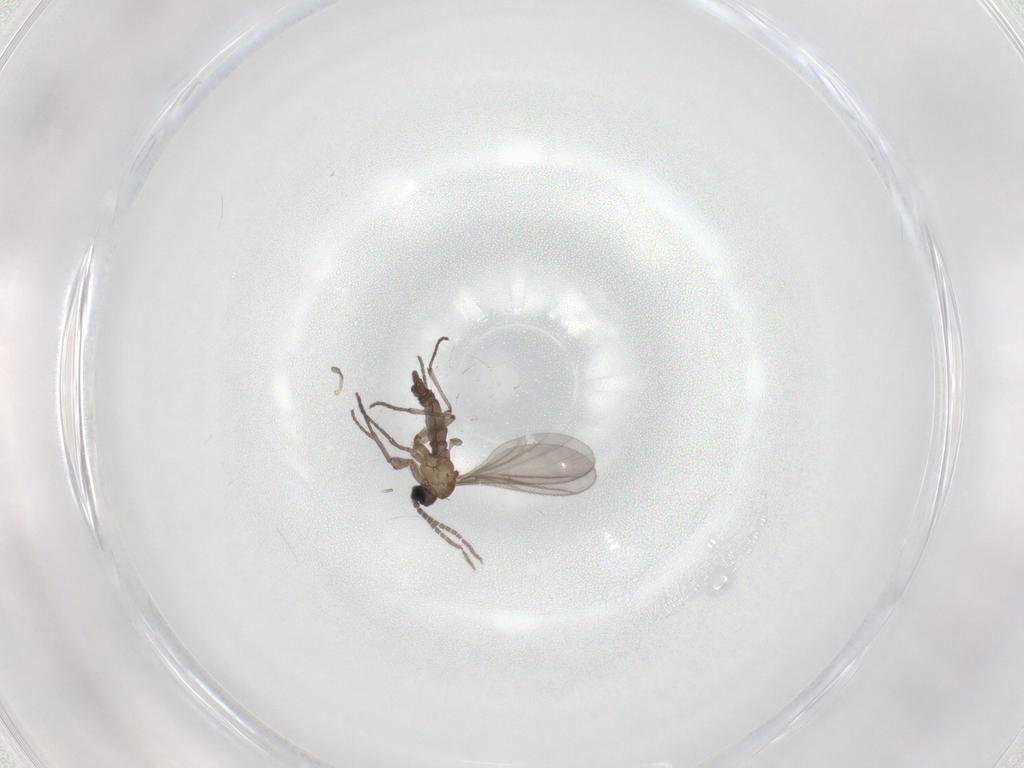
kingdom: Animalia
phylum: Arthropoda
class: Insecta
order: Diptera
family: Sciaridae
